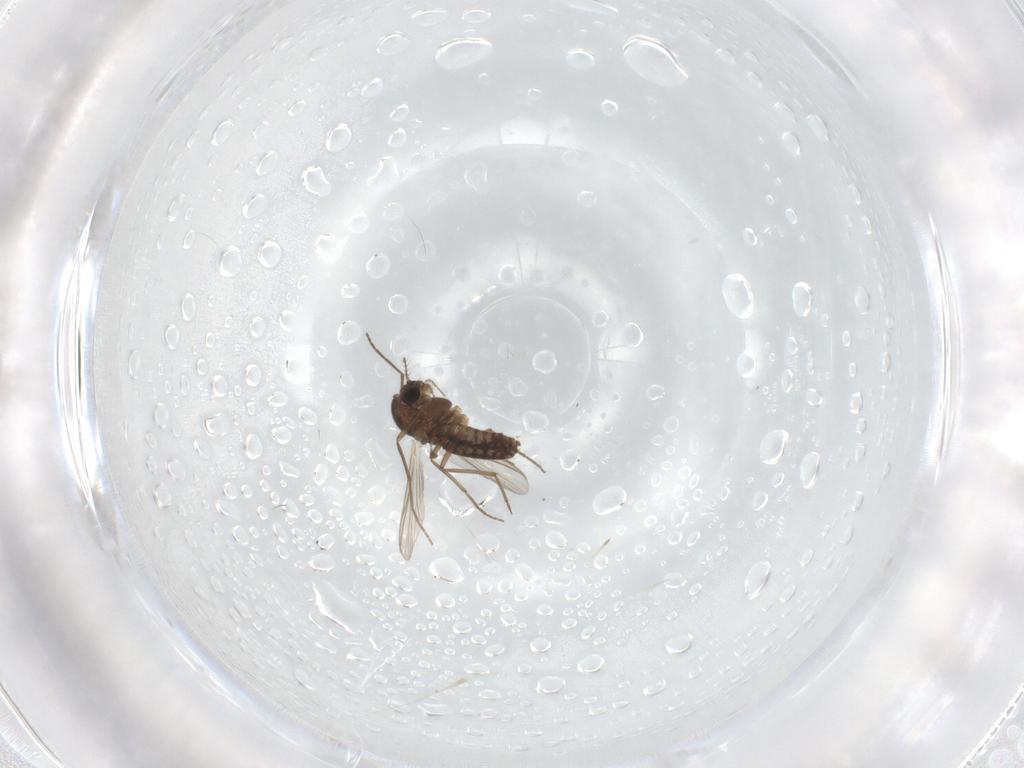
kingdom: Animalia
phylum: Arthropoda
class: Insecta
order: Diptera
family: Chironomidae
